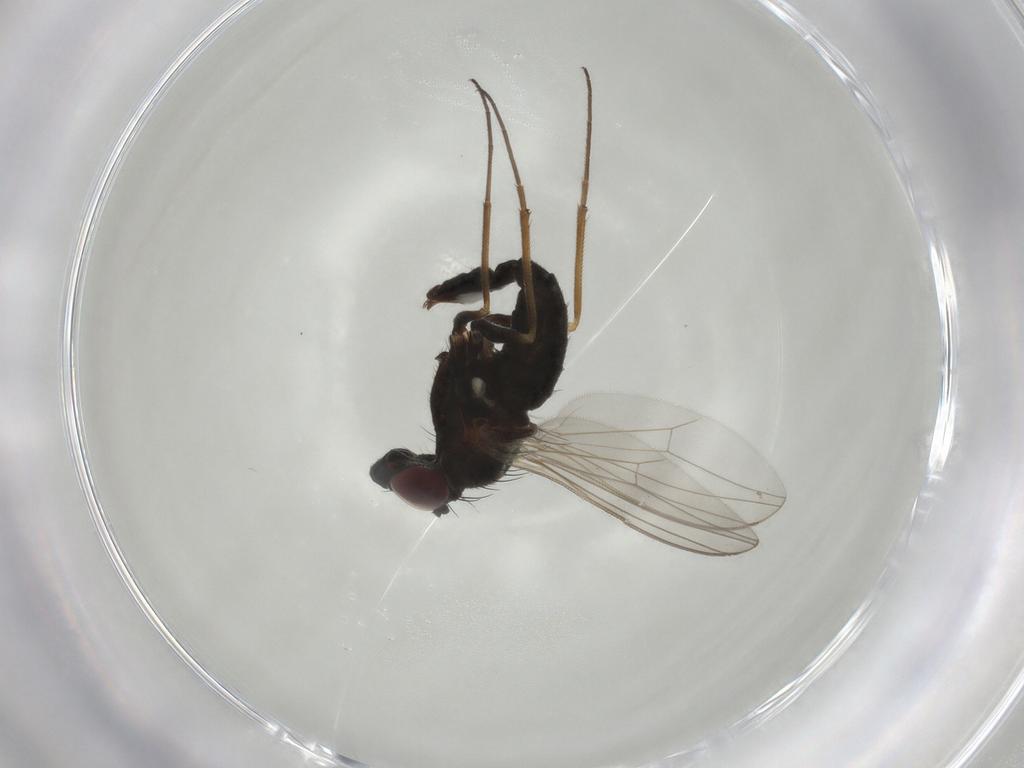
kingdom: Animalia
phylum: Arthropoda
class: Insecta
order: Diptera
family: Dolichopodidae
